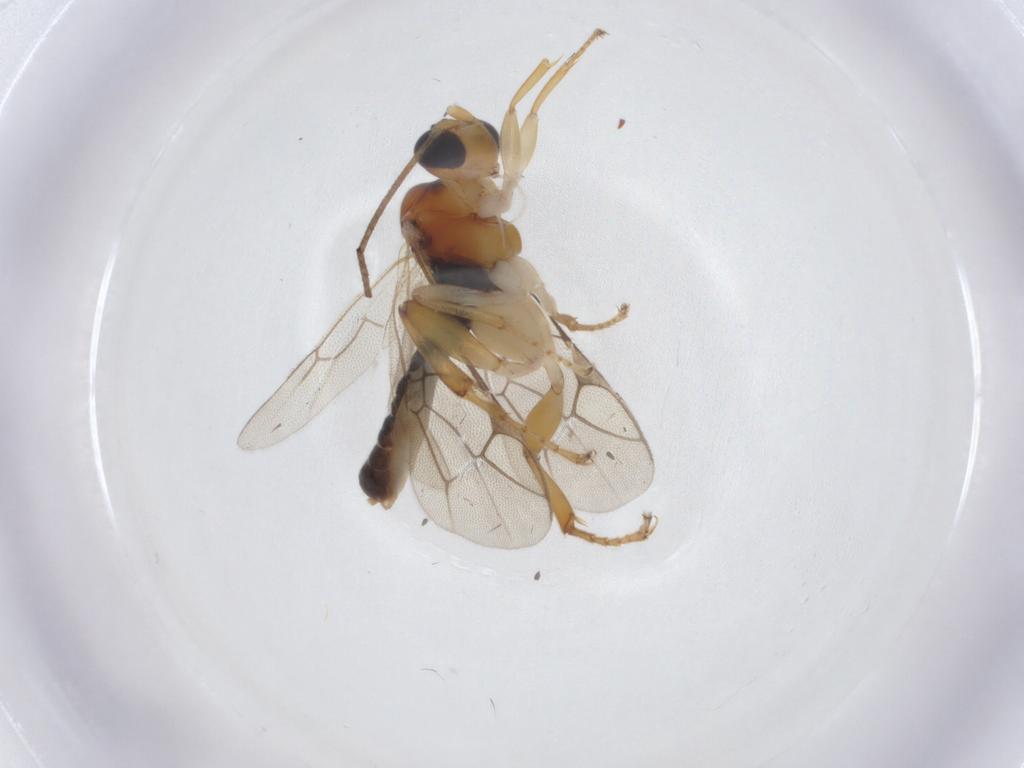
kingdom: Animalia
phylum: Arthropoda
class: Insecta
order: Hymenoptera
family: Ichneumonidae
